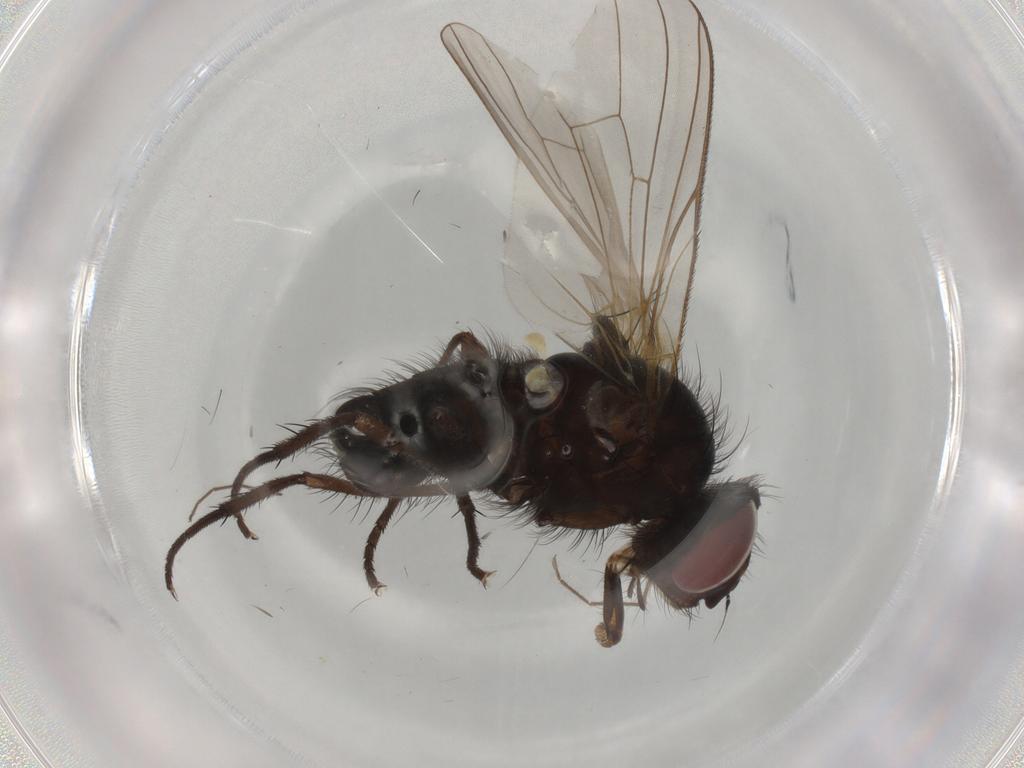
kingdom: Animalia
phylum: Arthropoda
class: Insecta
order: Diptera
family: Anthomyiidae
